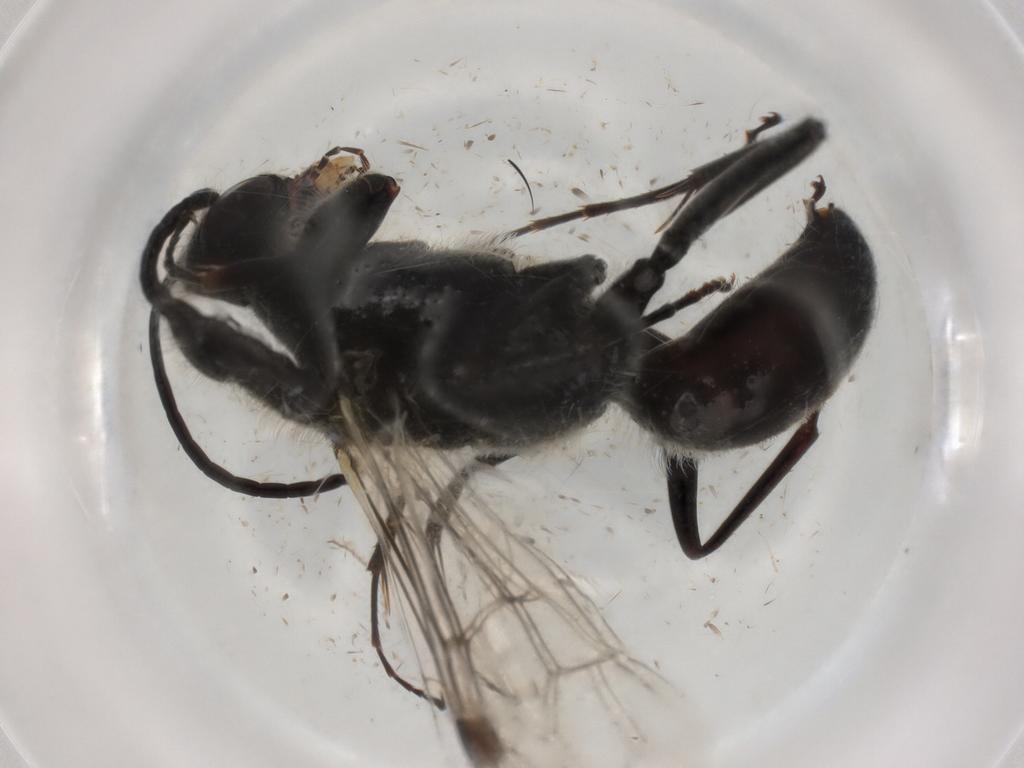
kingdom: Animalia
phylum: Arthropoda
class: Insecta
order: Hymenoptera
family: Pompilidae
